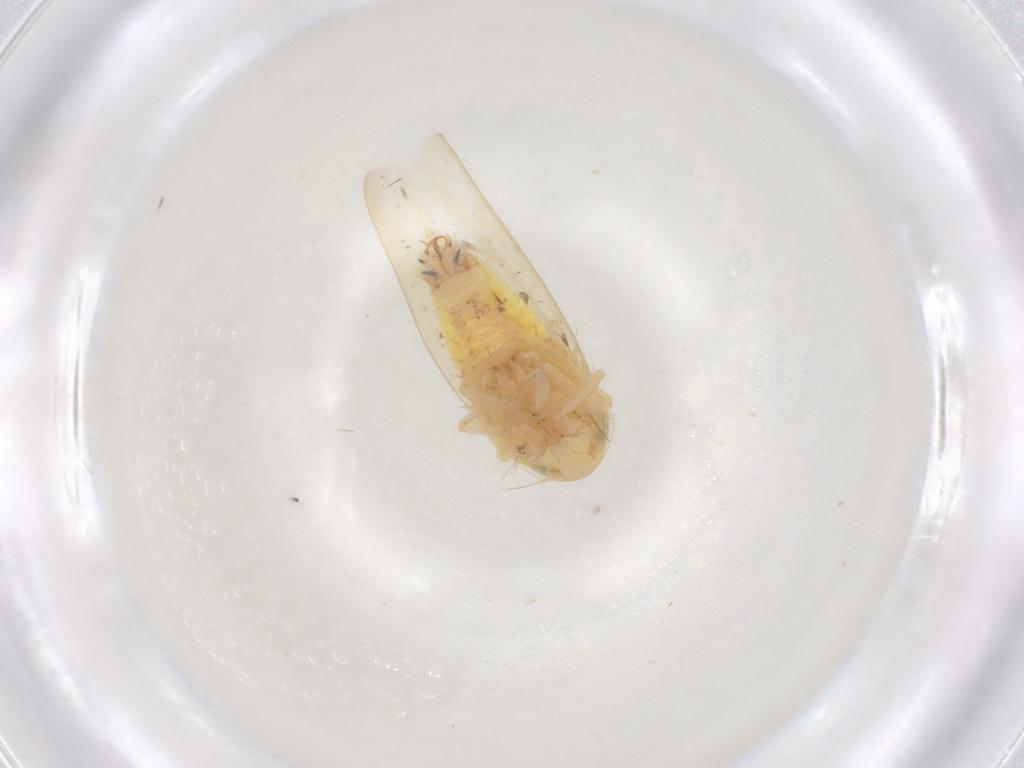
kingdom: Animalia
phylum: Arthropoda
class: Insecta
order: Hemiptera
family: Cicadellidae
